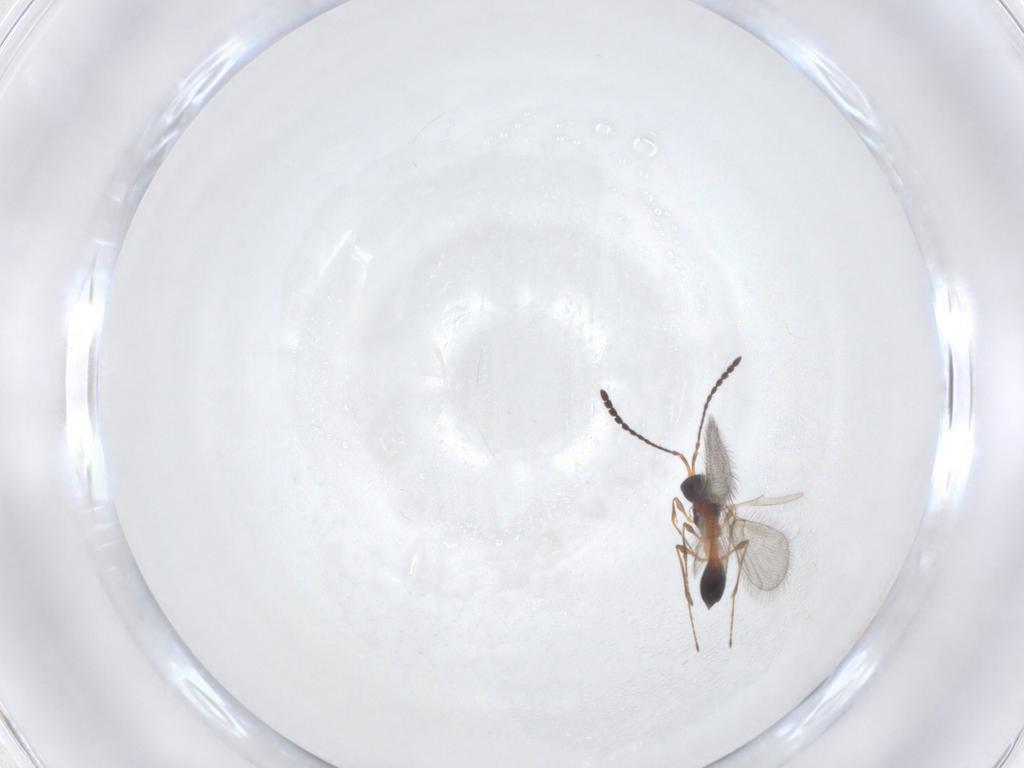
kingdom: Animalia
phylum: Arthropoda
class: Insecta
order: Hymenoptera
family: Diapriidae
